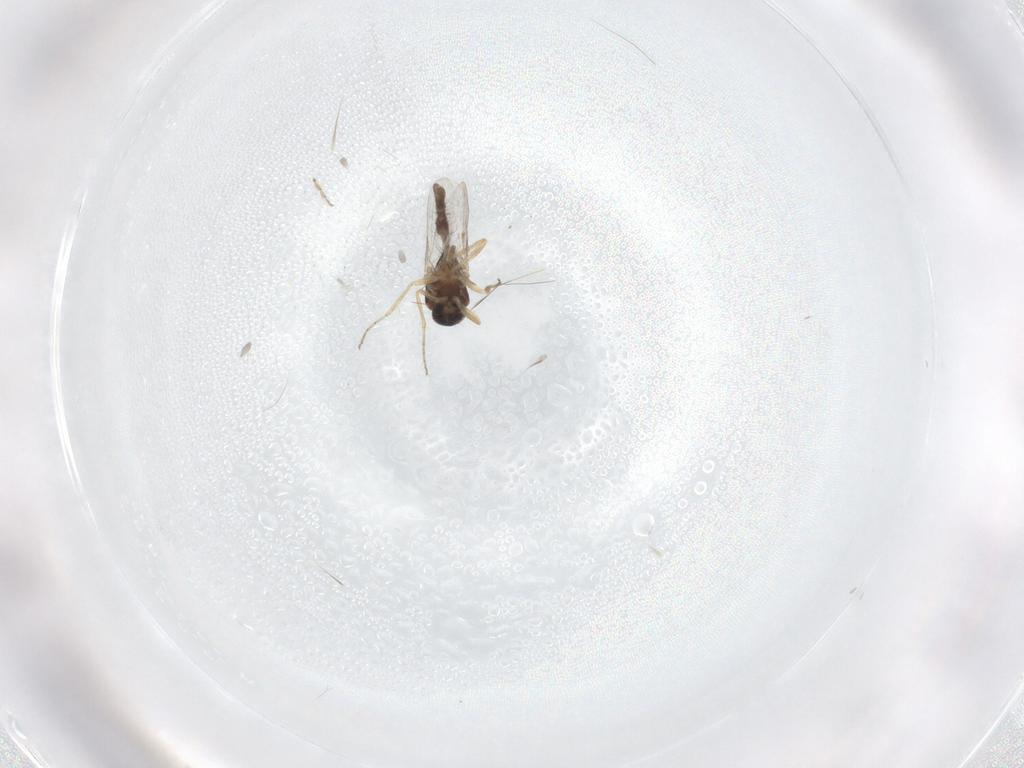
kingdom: Animalia
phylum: Arthropoda
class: Insecta
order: Diptera
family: Ceratopogonidae
